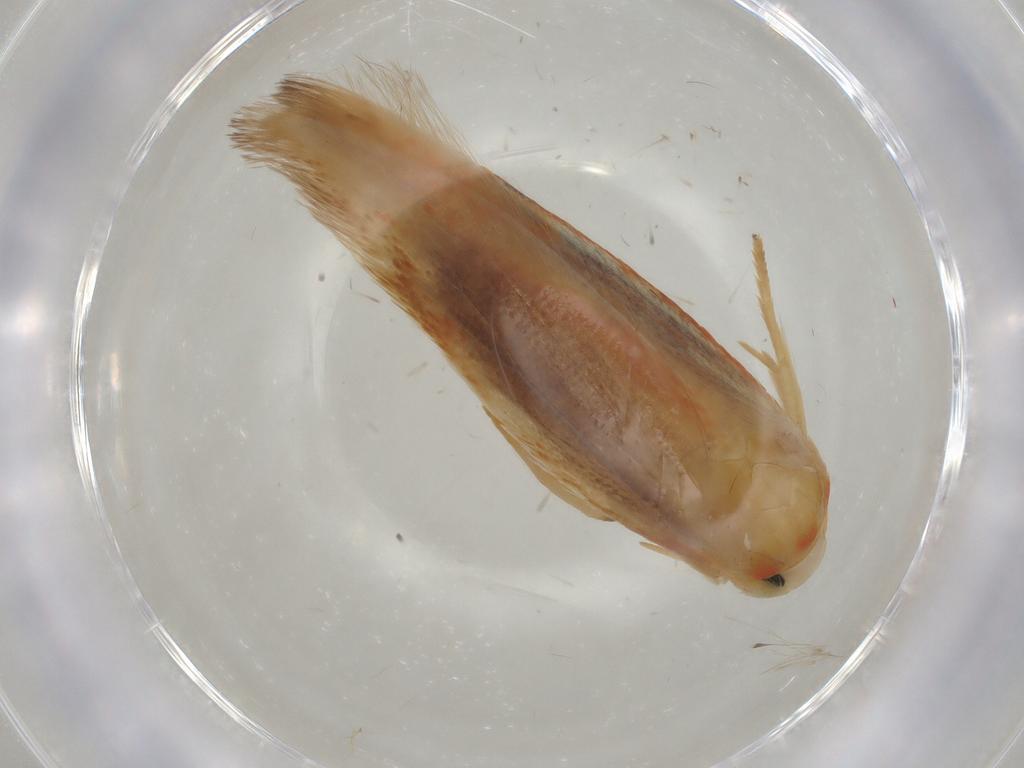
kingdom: Animalia
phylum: Arthropoda
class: Insecta
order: Lepidoptera
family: Geometridae
